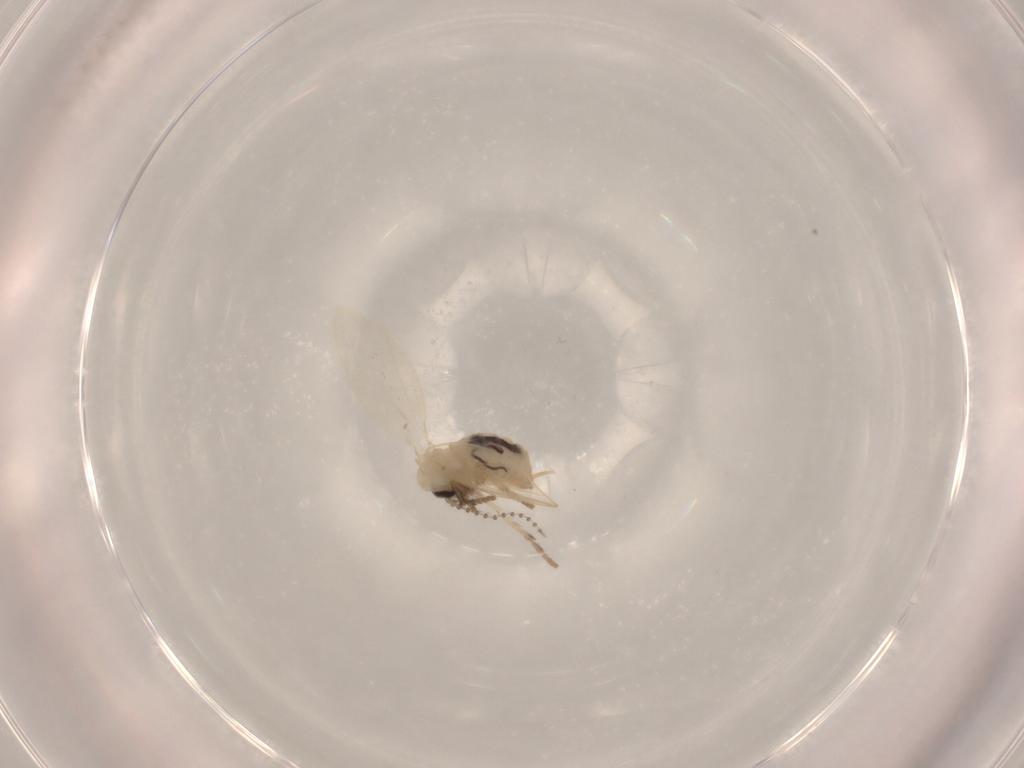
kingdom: Animalia
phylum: Arthropoda
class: Insecta
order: Diptera
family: Psychodidae
